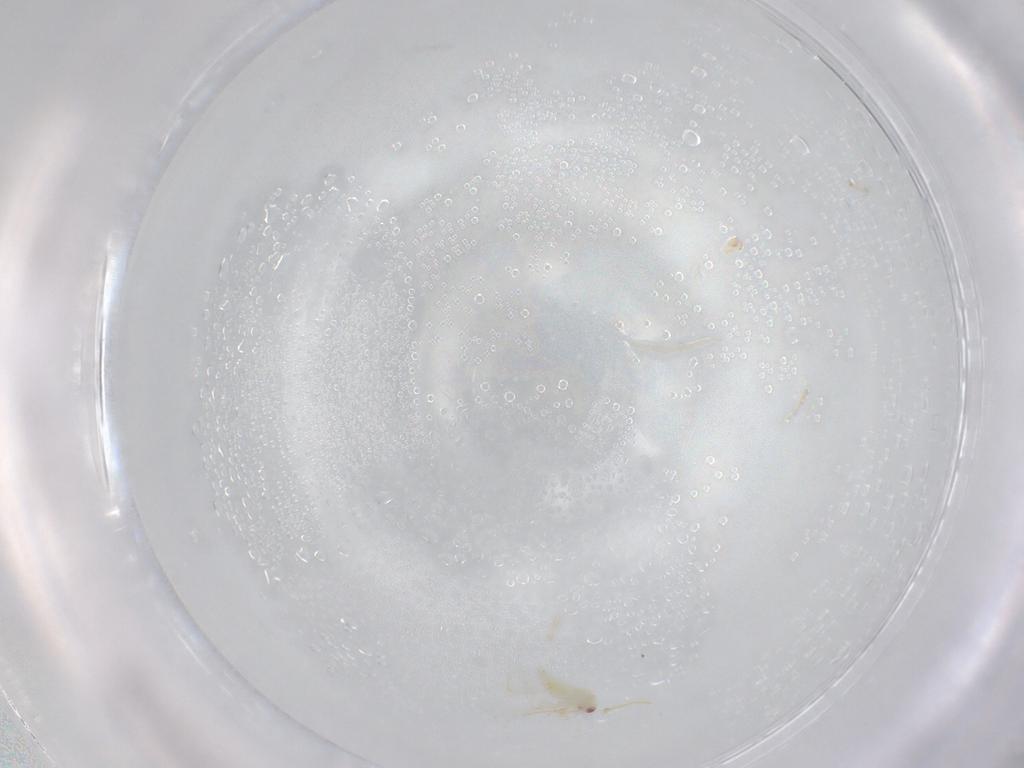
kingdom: Animalia
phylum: Arthropoda
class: Insecta
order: Hemiptera
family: Aleyrodidae
